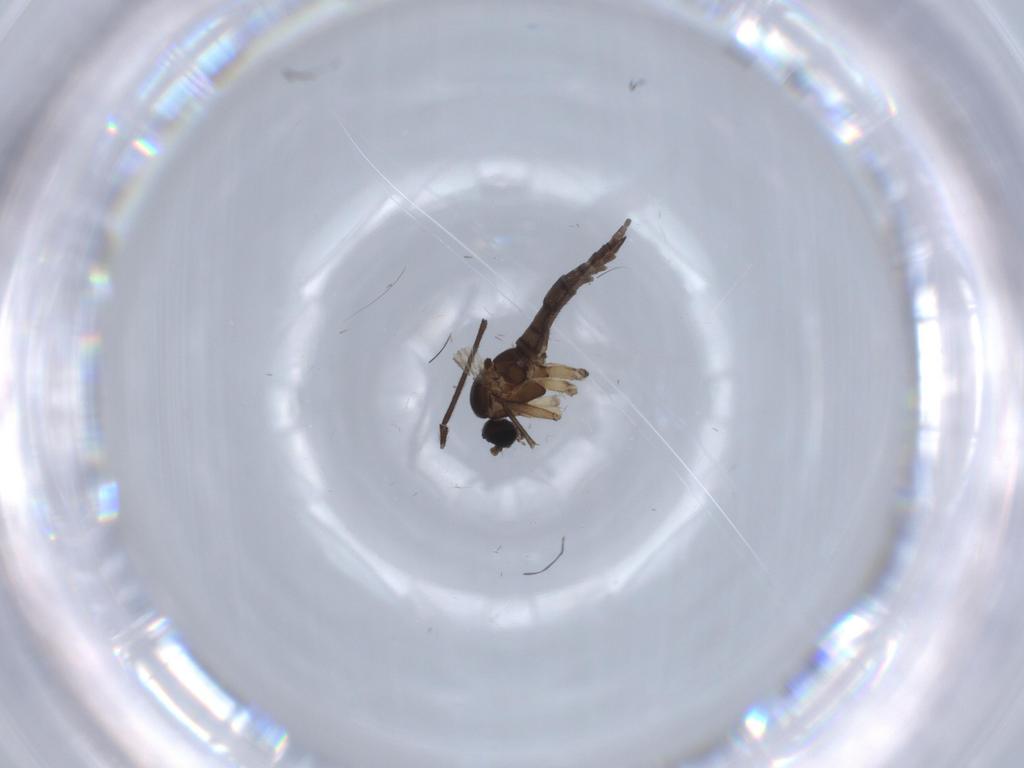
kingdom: Animalia
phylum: Arthropoda
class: Insecta
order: Diptera
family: Sciaridae
